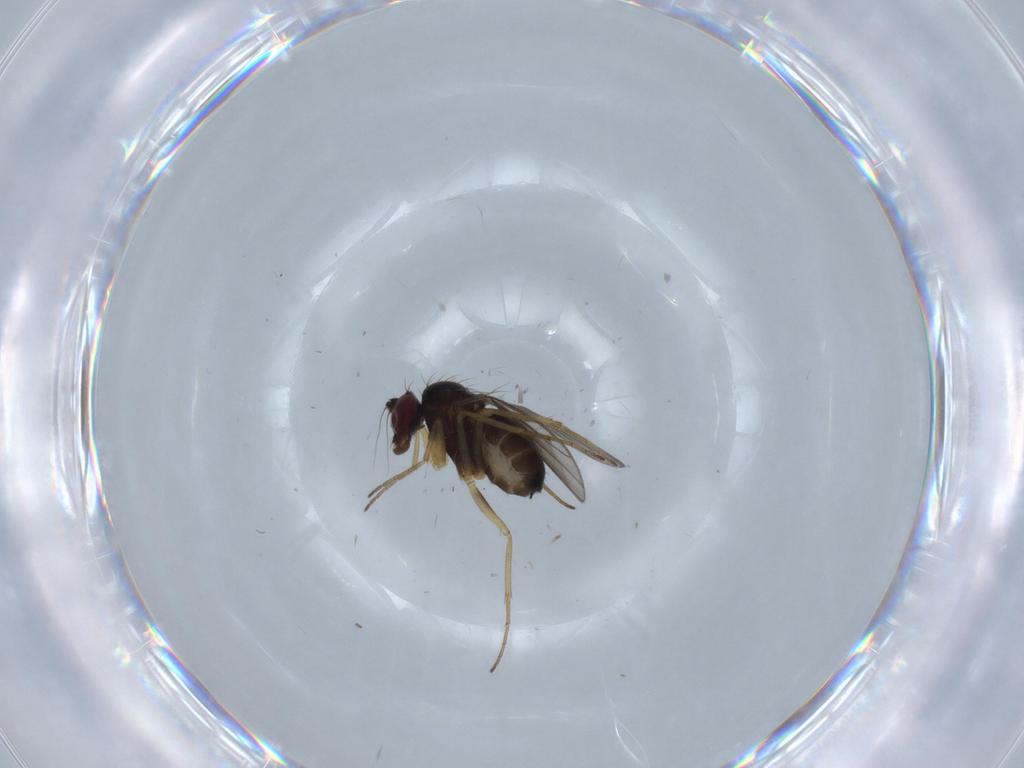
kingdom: Animalia
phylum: Arthropoda
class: Insecta
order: Diptera
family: Dolichopodidae
